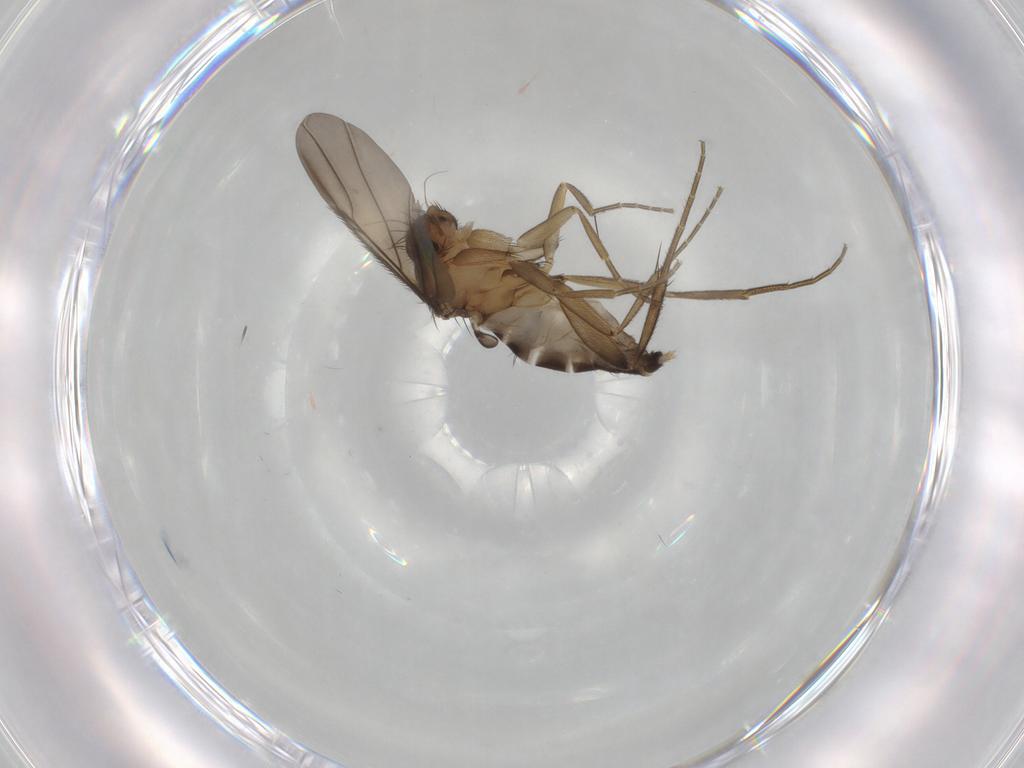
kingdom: Animalia
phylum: Arthropoda
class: Insecta
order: Diptera
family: Phoridae
